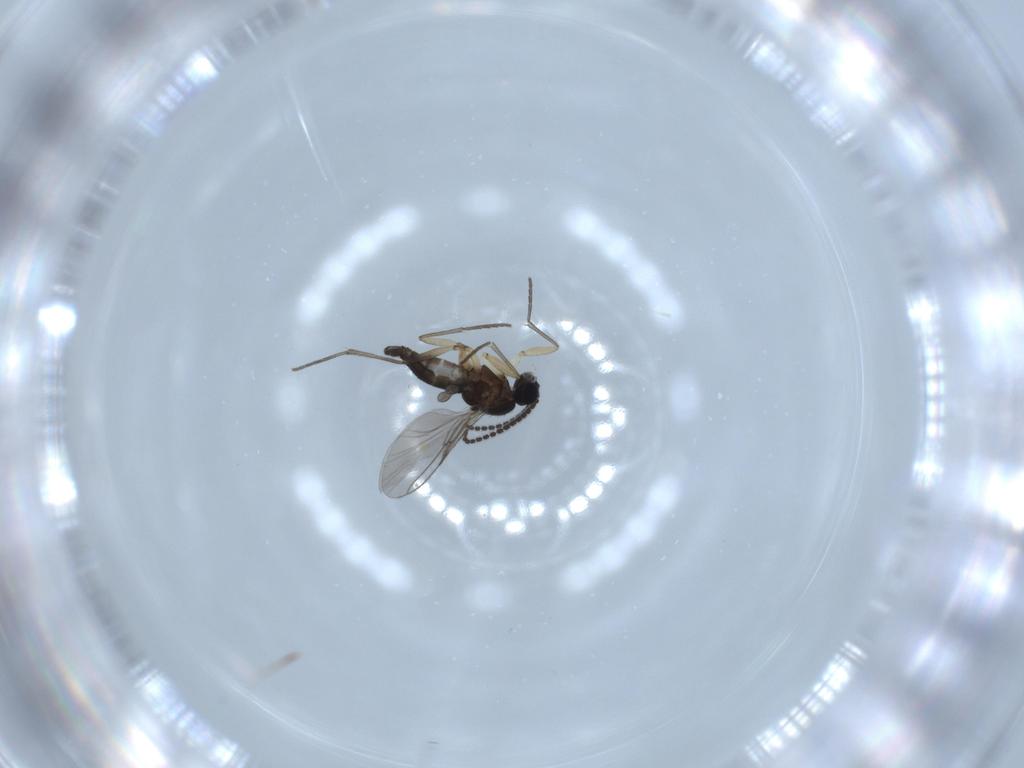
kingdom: Animalia
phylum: Arthropoda
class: Insecta
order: Diptera
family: Sciaridae
